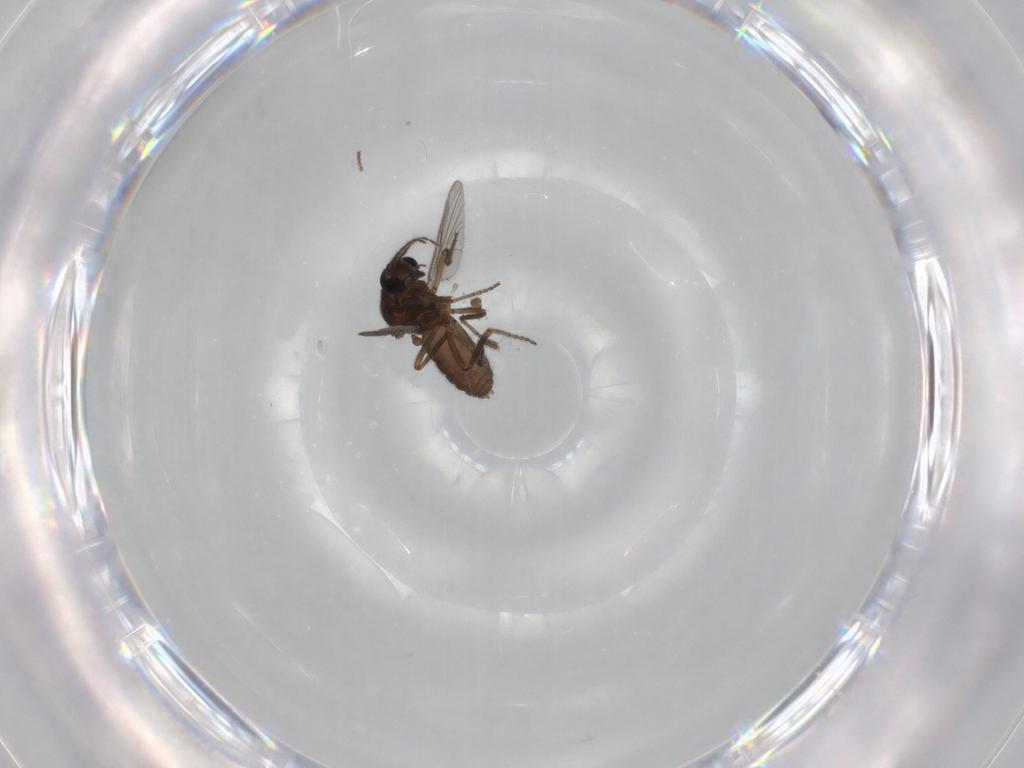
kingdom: Animalia
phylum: Arthropoda
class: Insecta
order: Diptera
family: Ceratopogonidae
